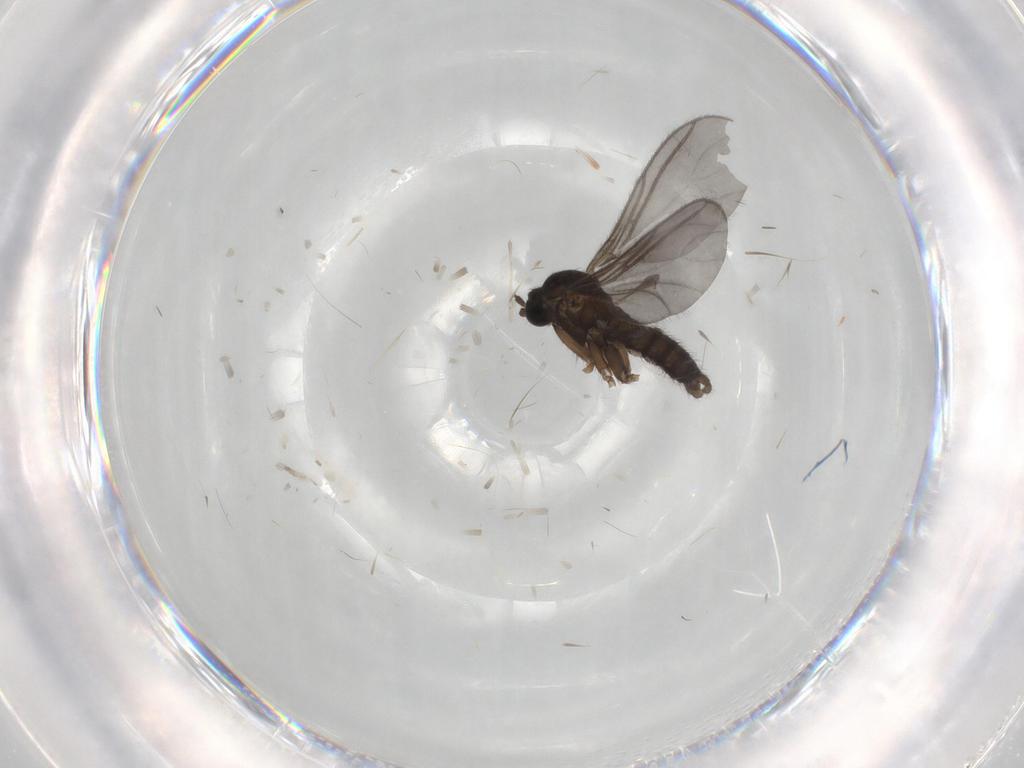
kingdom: Animalia
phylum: Arthropoda
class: Insecta
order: Diptera
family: Sciaridae
